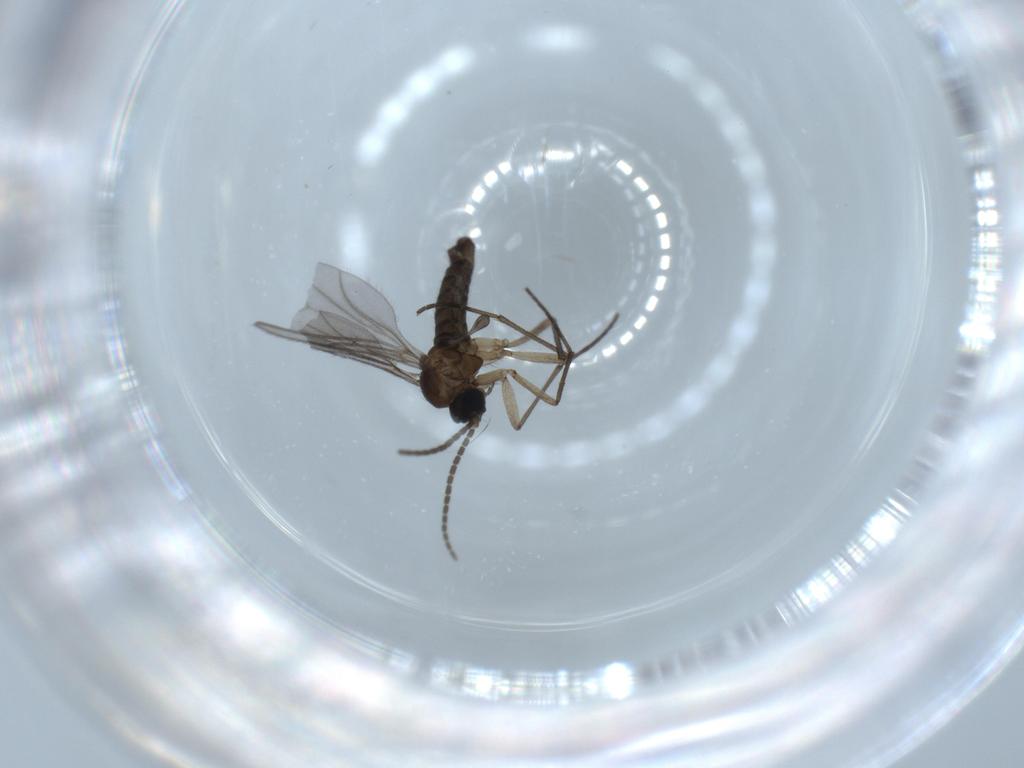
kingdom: Animalia
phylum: Arthropoda
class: Insecta
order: Diptera
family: Sciaridae
